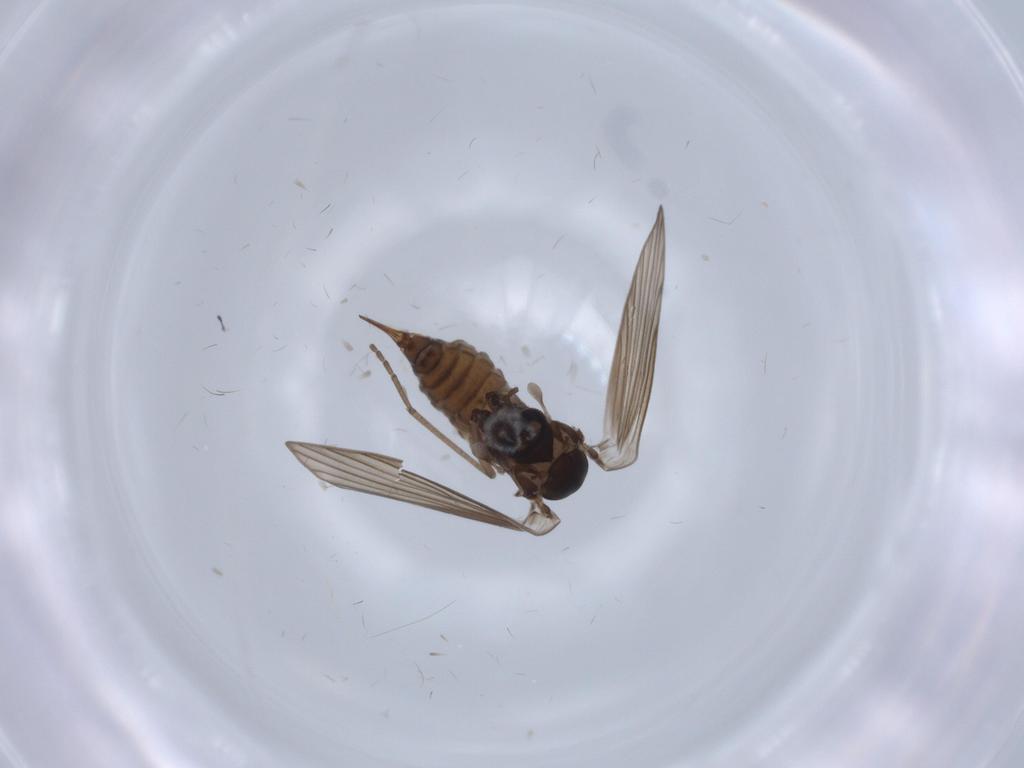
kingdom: Animalia
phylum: Arthropoda
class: Insecta
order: Diptera
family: Psychodidae
